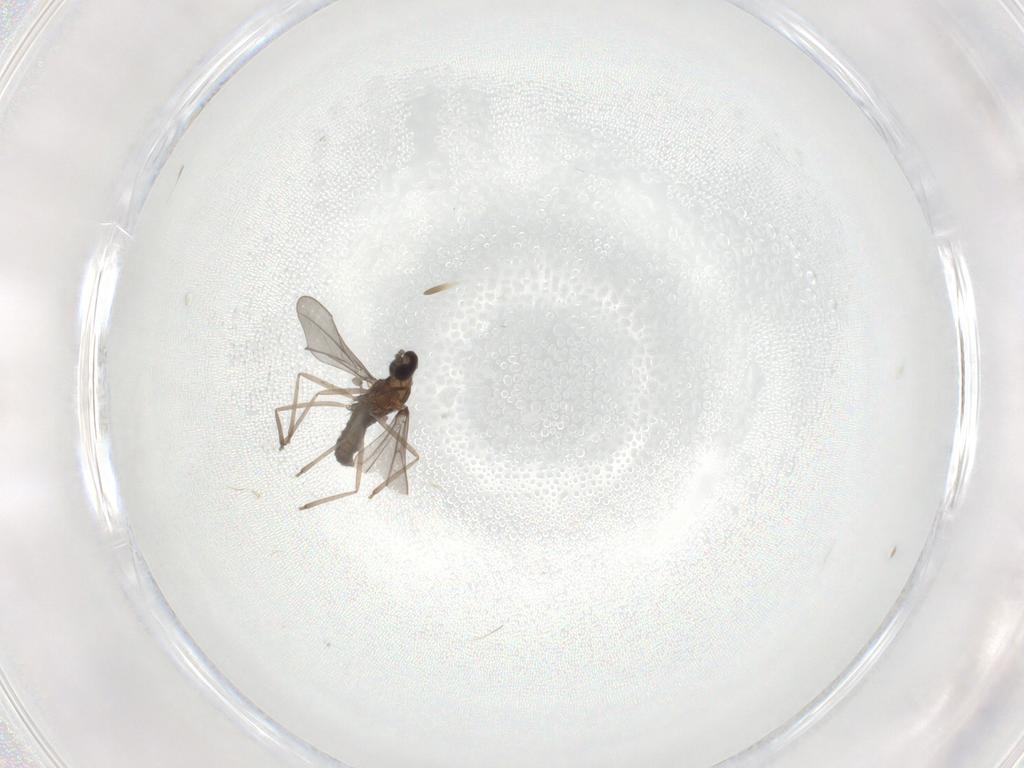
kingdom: Animalia
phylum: Arthropoda
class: Insecta
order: Diptera
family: Cecidomyiidae
